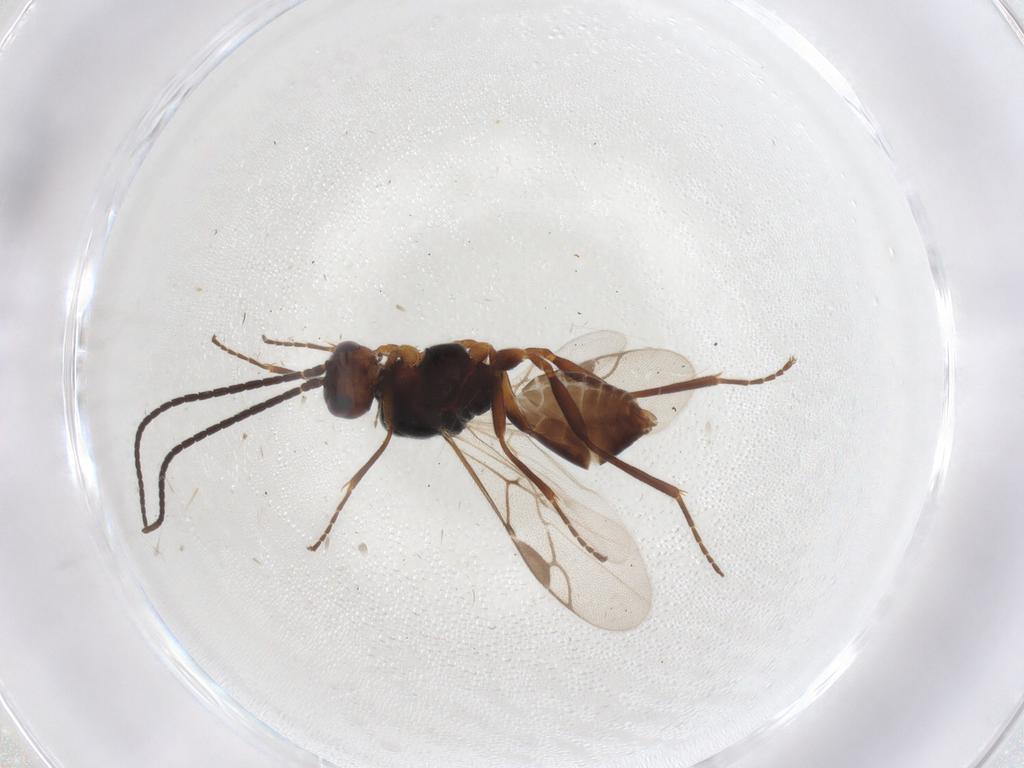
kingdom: Animalia
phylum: Arthropoda
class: Insecta
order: Hymenoptera
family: Braconidae
